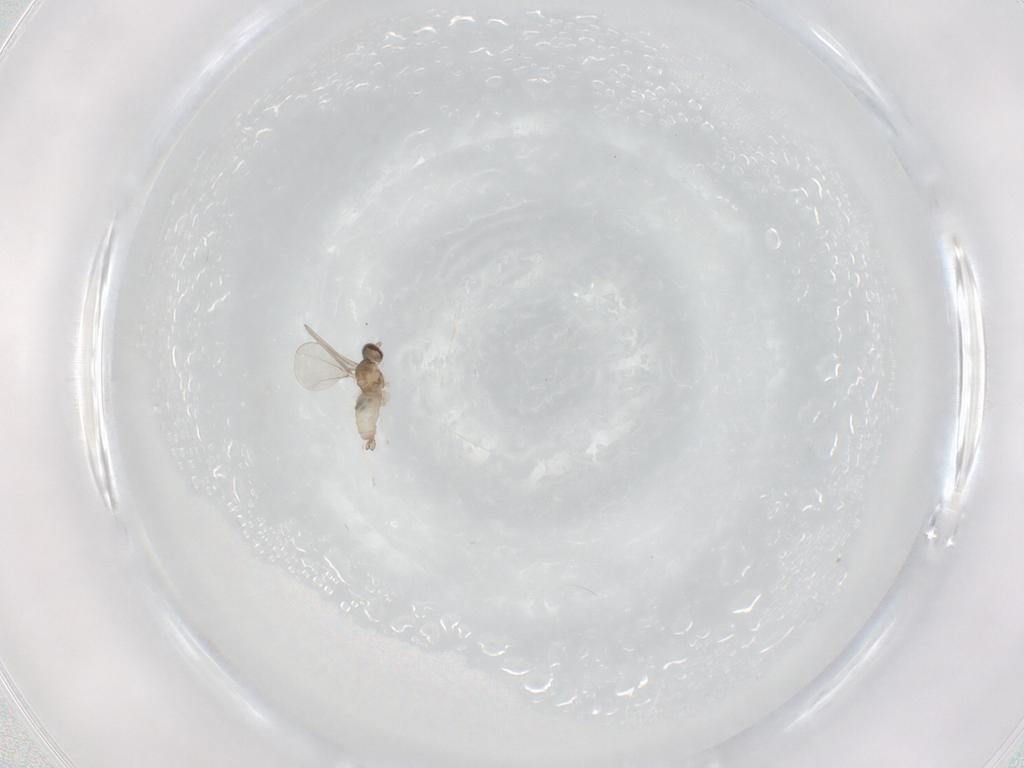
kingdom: Animalia
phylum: Arthropoda
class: Insecta
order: Diptera
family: Cecidomyiidae
